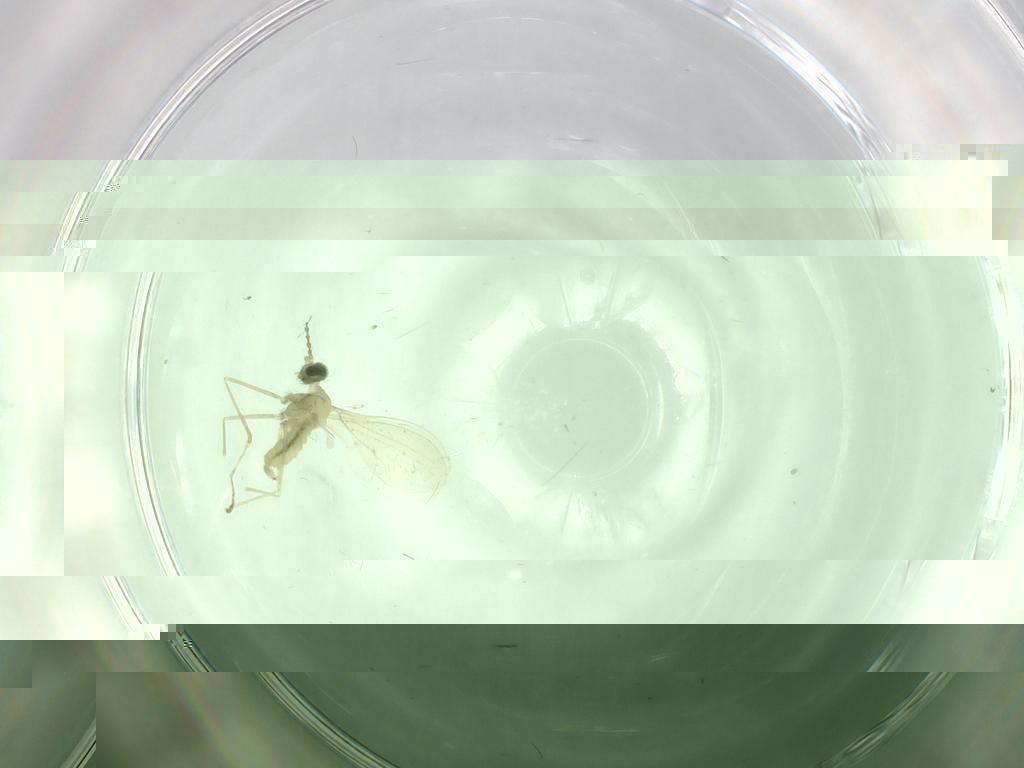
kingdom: Animalia
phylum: Arthropoda
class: Insecta
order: Diptera
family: Cecidomyiidae
